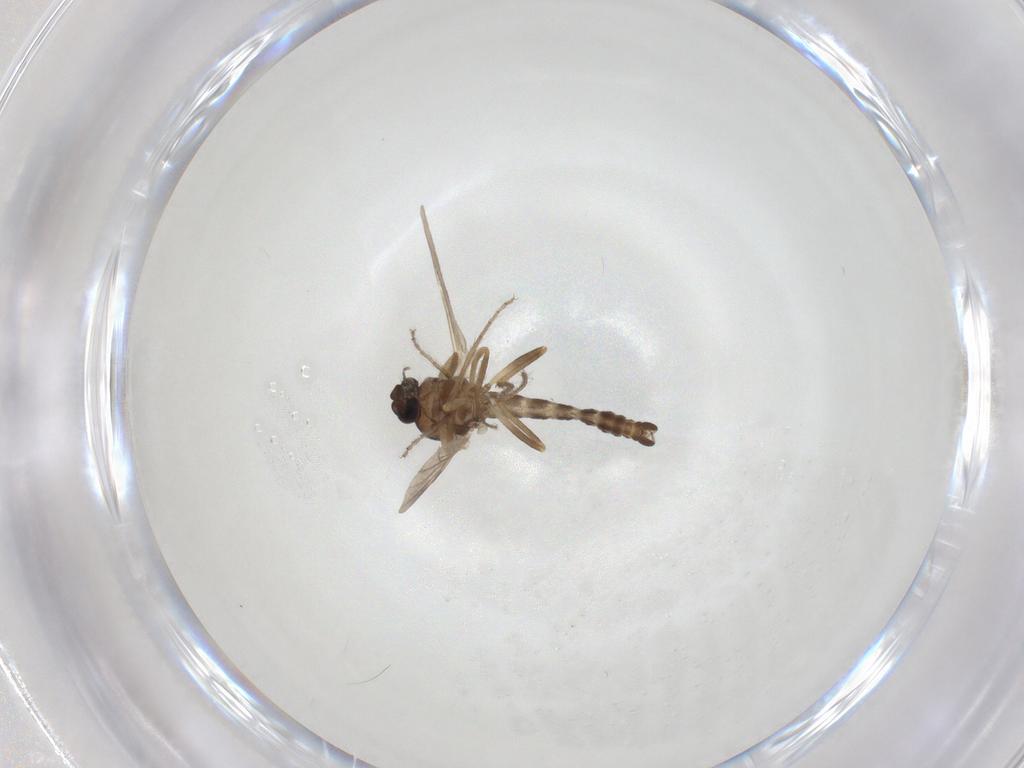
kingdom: Animalia
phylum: Arthropoda
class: Insecta
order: Diptera
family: Ceratopogonidae
